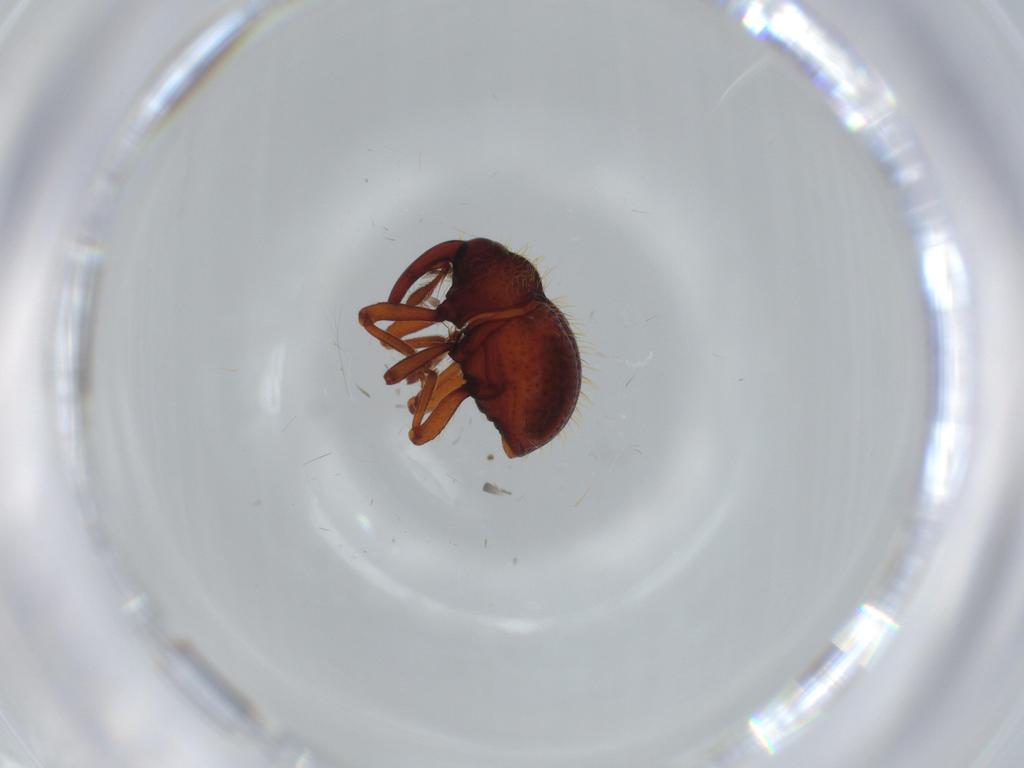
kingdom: Animalia
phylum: Arthropoda
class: Insecta
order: Coleoptera
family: Curculionidae
